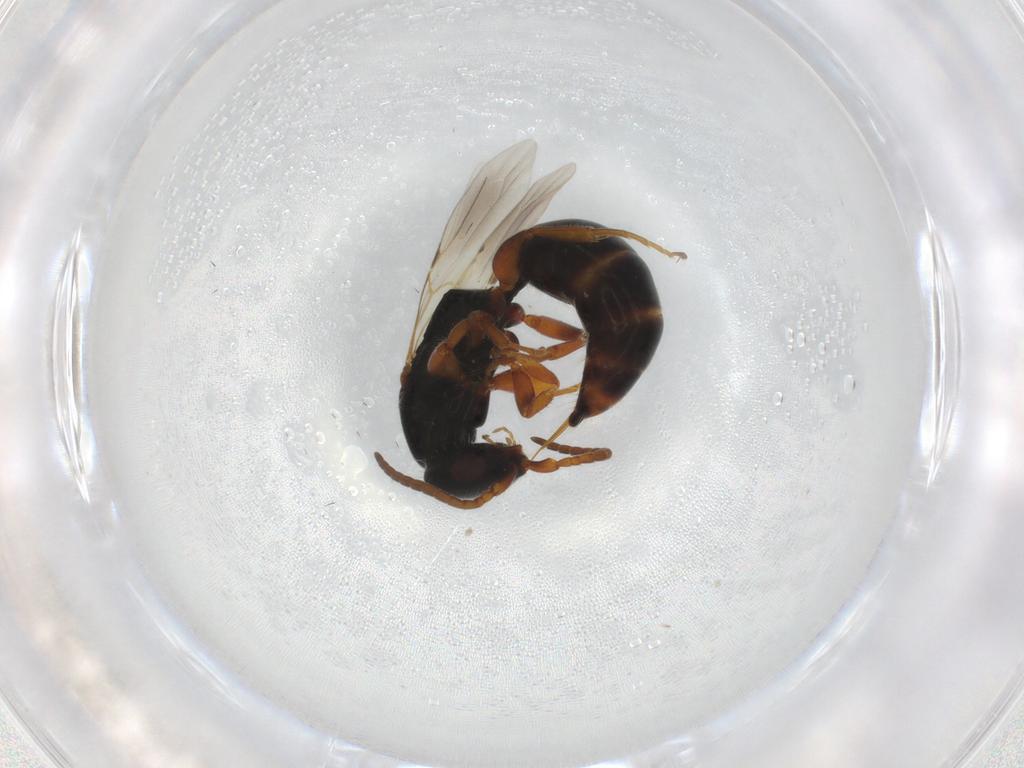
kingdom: Animalia
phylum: Arthropoda
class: Insecta
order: Hymenoptera
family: Bethylidae
